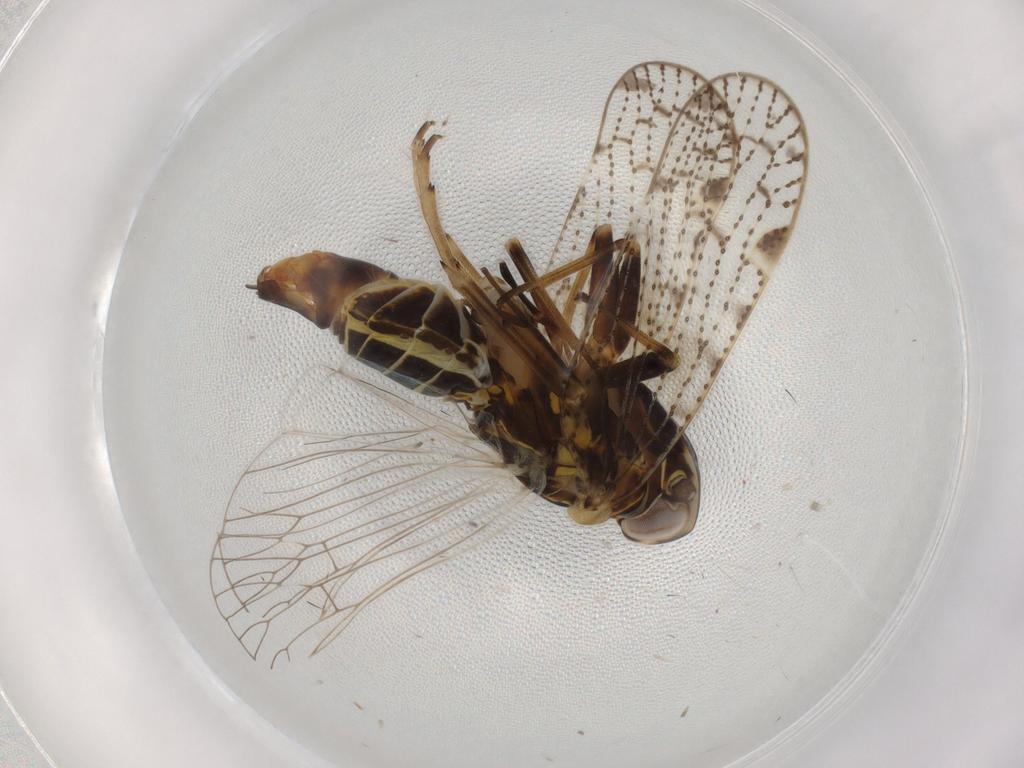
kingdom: Animalia
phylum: Arthropoda
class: Insecta
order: Hemiptera
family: Cixiidae
